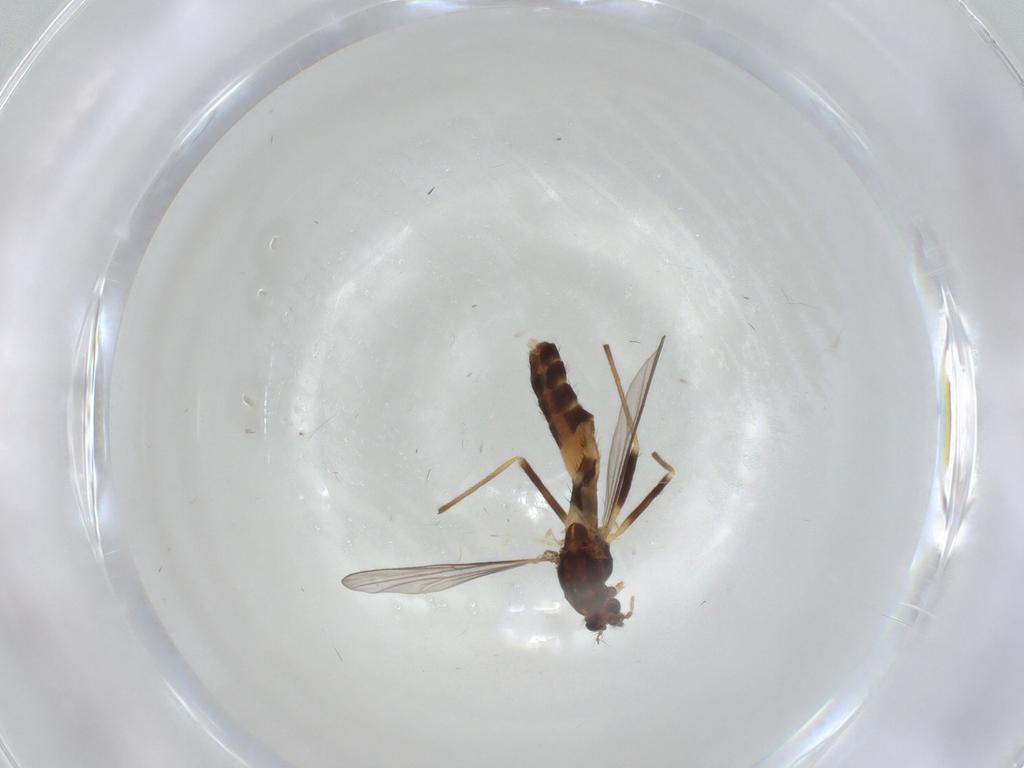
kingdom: Animalia
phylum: Arthropoda
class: Insecta
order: Diptera
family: Chironomidae
